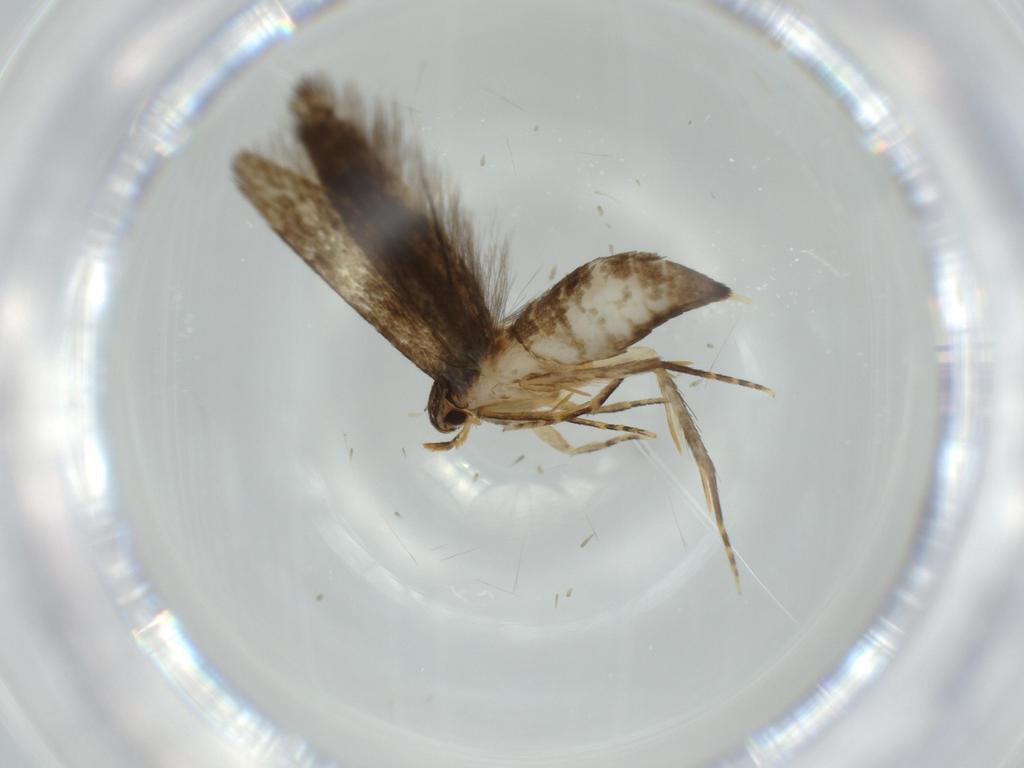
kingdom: Animalia
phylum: Arthropoda
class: Insecta
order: Lepidoptera
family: Tineidae
